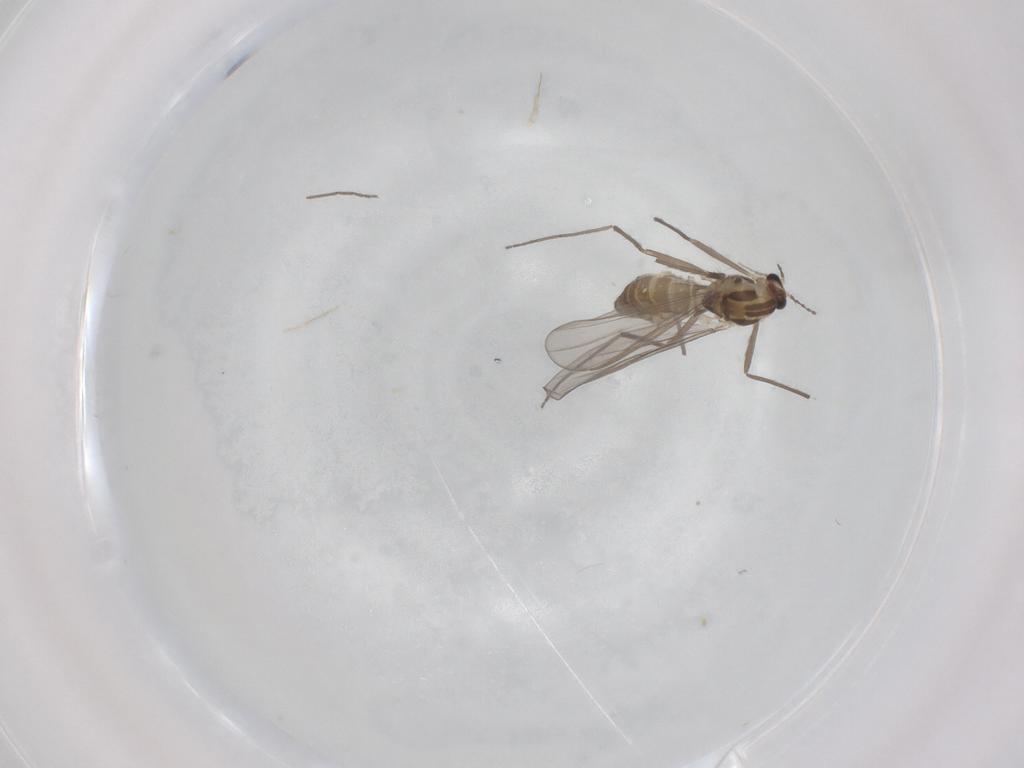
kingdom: Animalia
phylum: Arthropoda
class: Insecta
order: Diptera
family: Chironomidae
